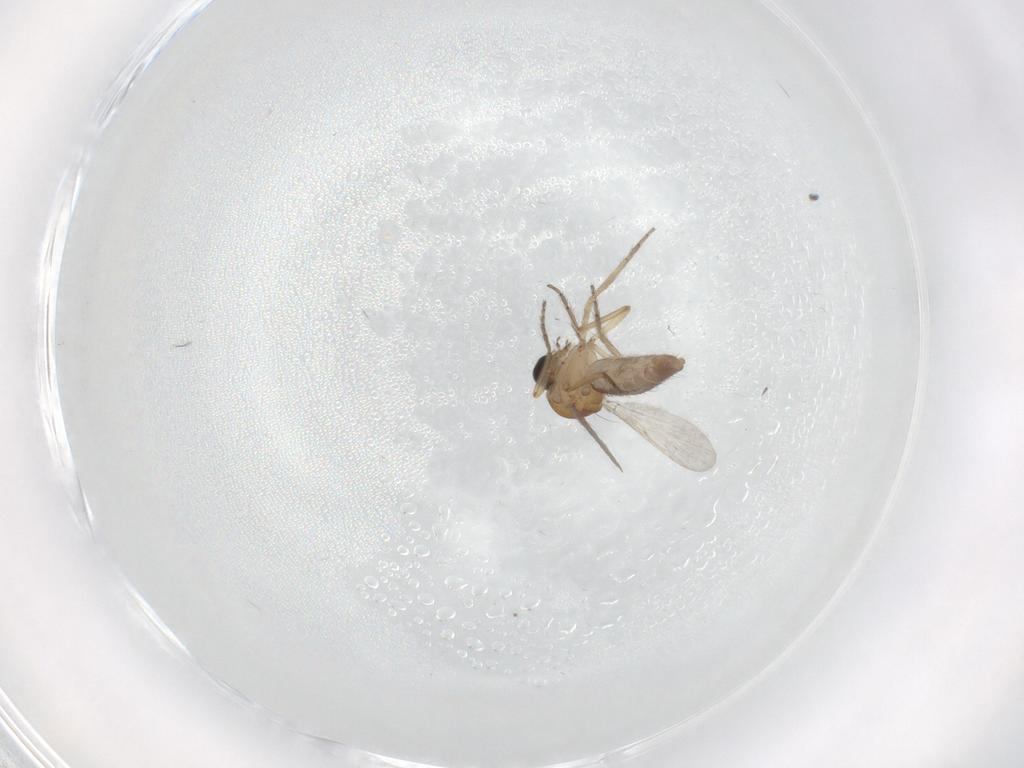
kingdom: Animalia
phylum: Arthropoda
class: Insecta
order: Diptera
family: Ceratopogonidae
